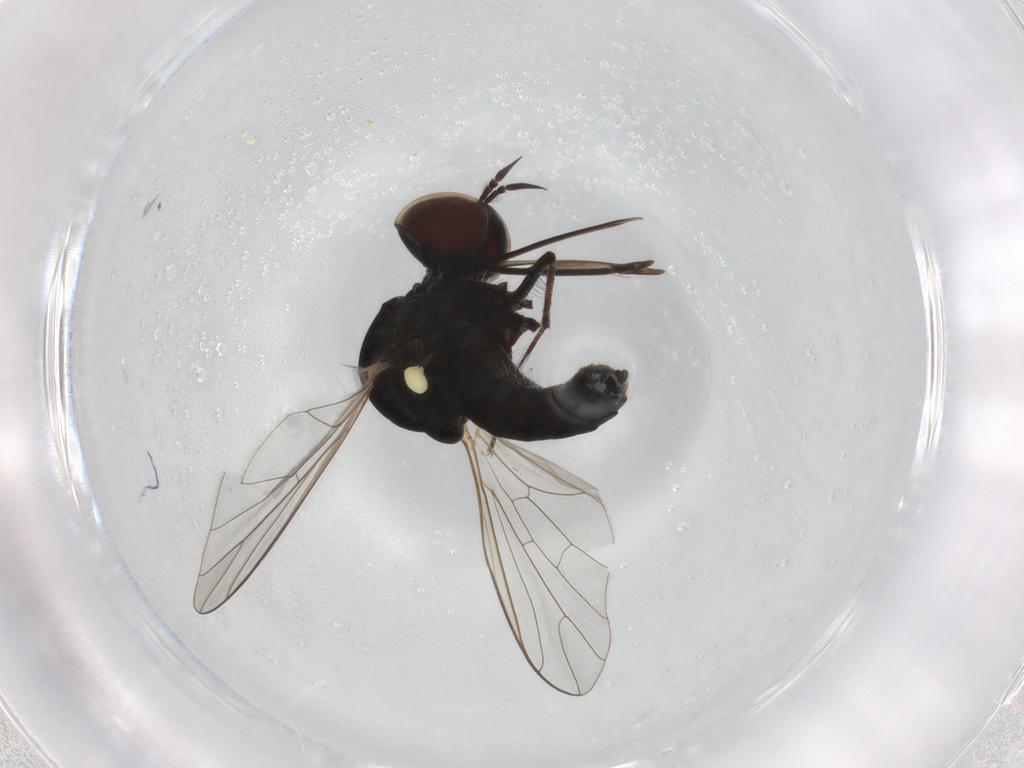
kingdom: Animalia
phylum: Arthropoda
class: Insecta
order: Diptera
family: Bombyliidae
